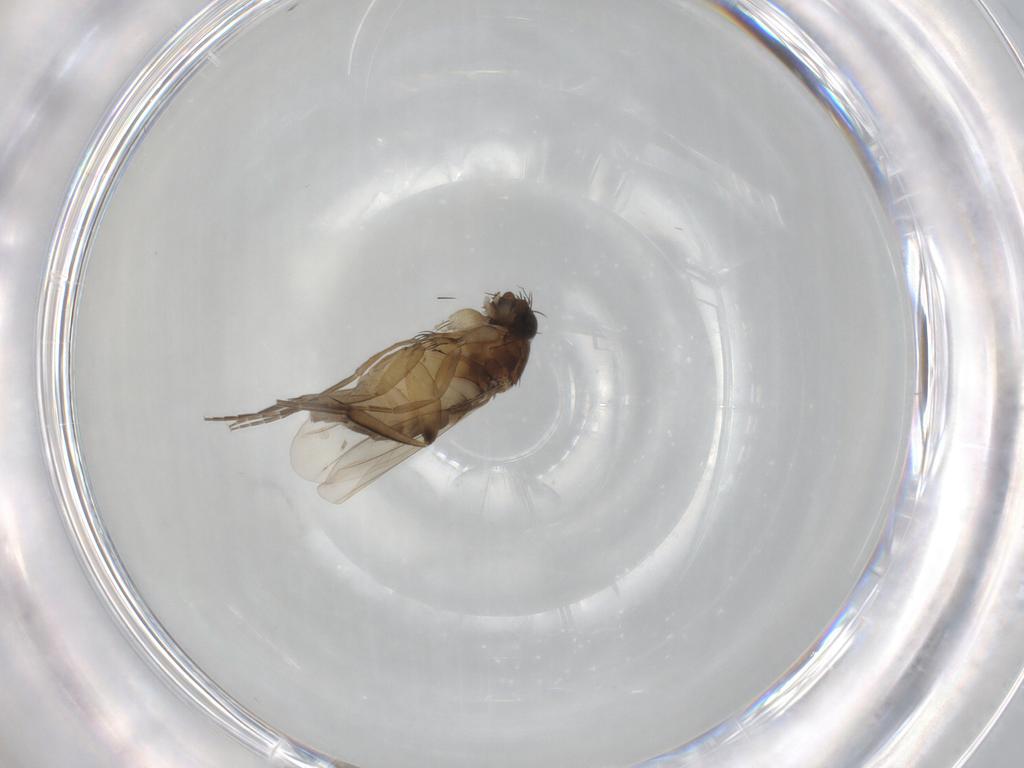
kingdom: Animalia
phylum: Arthropoda
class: Insecta
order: Diptera
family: Phoridae
